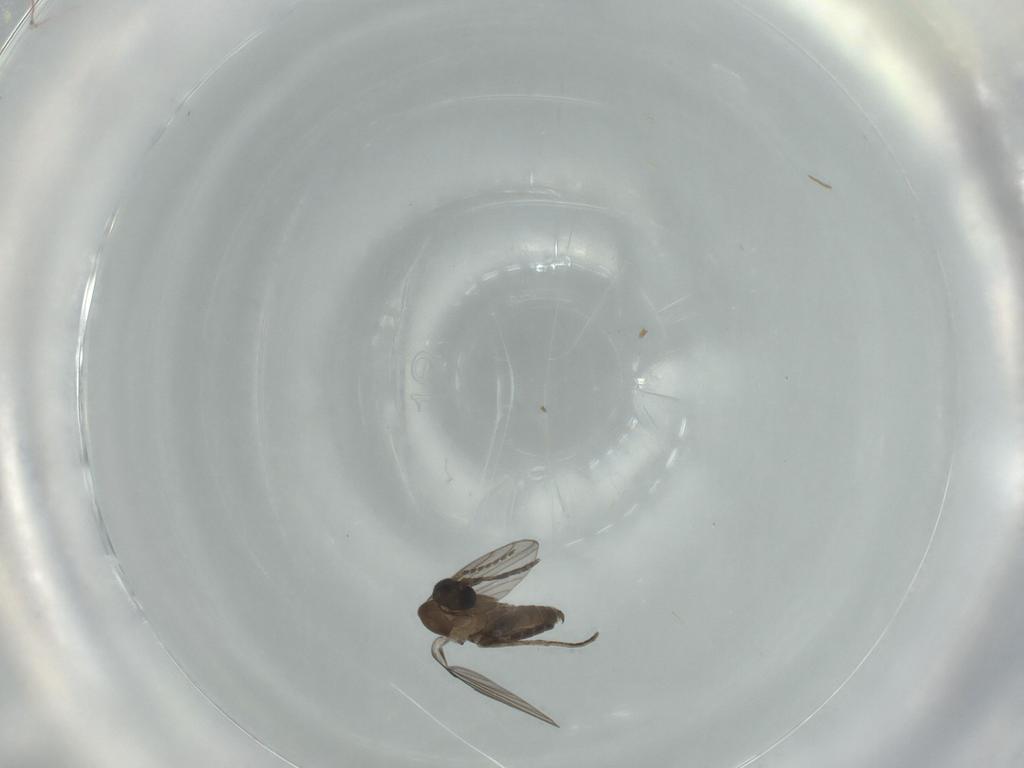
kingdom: Animalia
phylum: Arthropoda
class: Insecta
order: Diptera
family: Psychodidae
